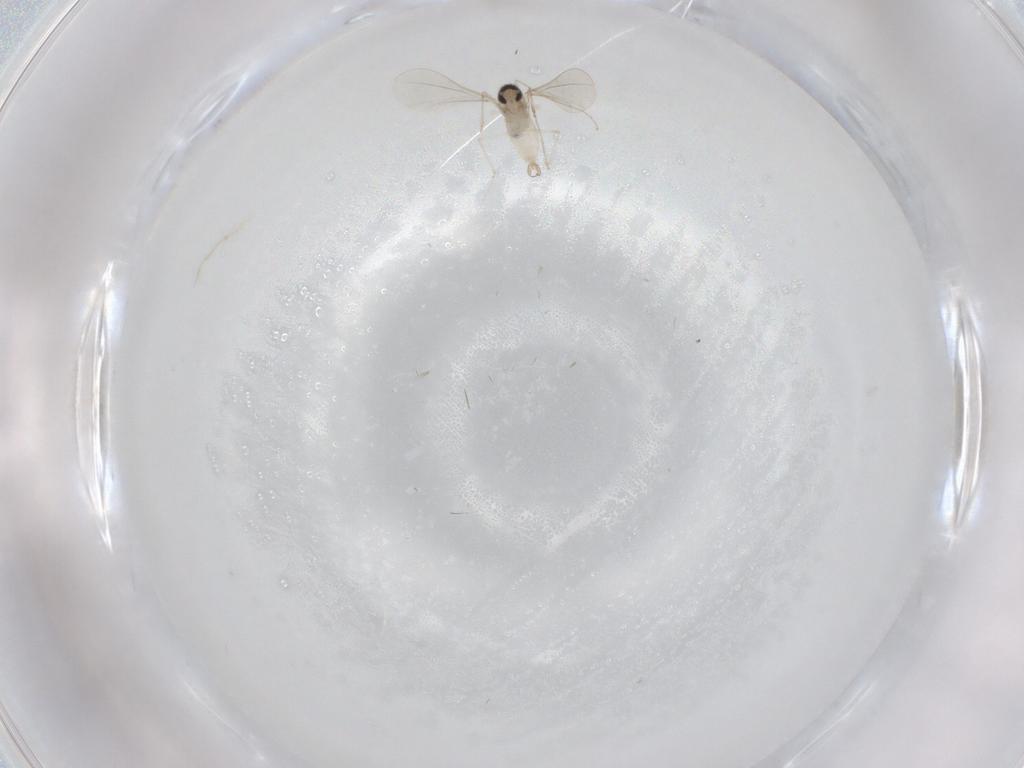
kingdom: Animalia
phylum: Arthropoda
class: Insecta
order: Diptera
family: Cecidomyiidae
